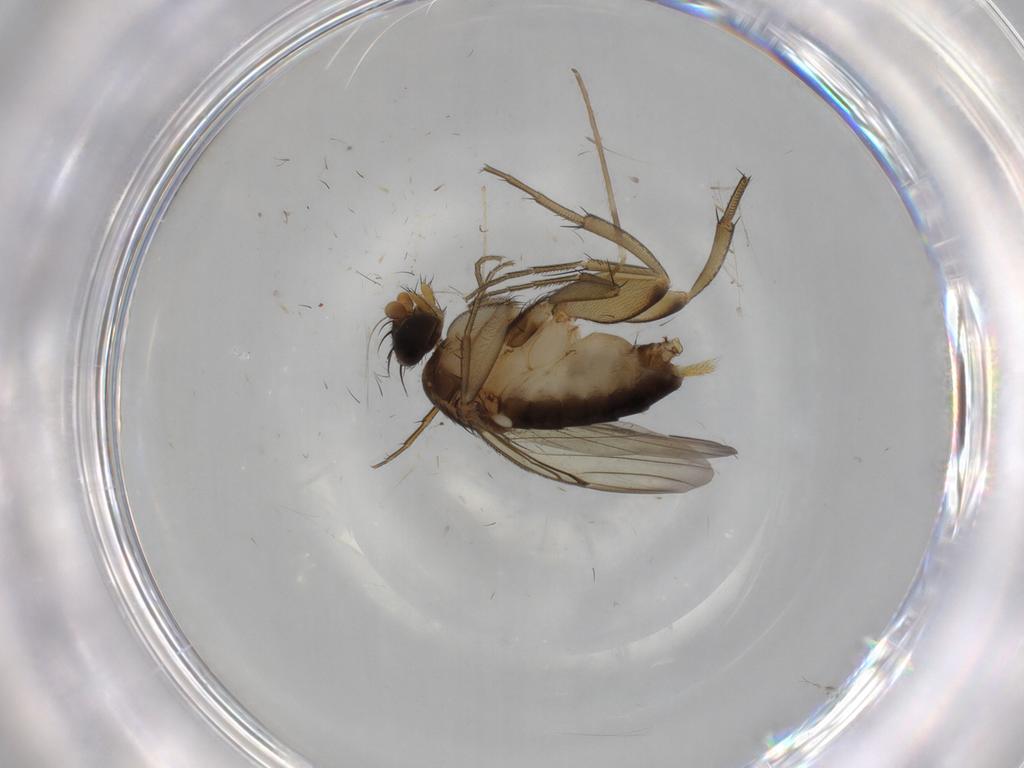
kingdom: Animalia
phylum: Arthropoda
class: Insecta
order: Diptera
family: Phoridae
